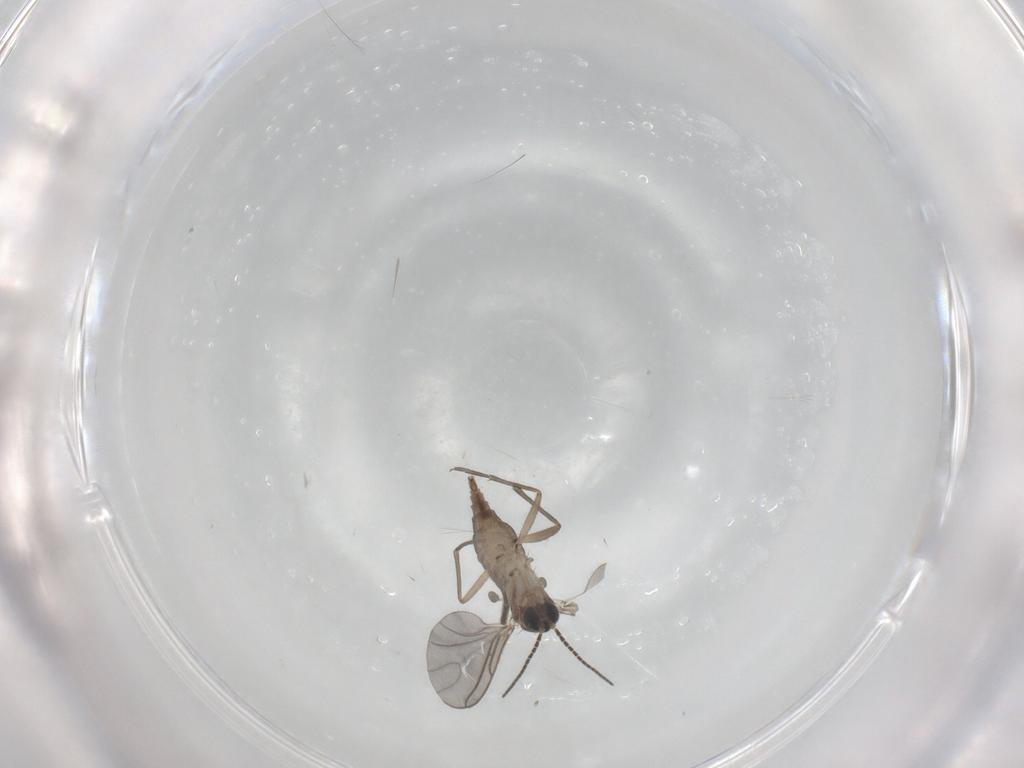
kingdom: Animalia
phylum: Arthropoda
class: Insecta
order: Diptera
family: Sciaridae
